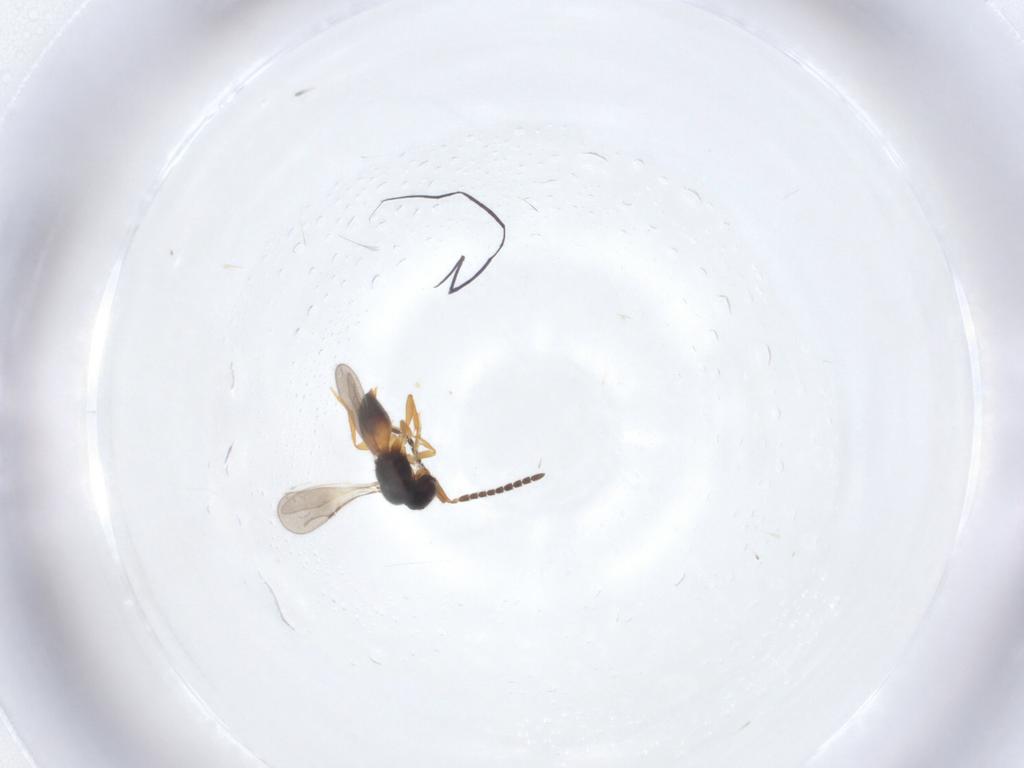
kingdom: Animalia
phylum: Arthropoda
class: Insecta
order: Hymenoptera
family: Ceraphronidae
